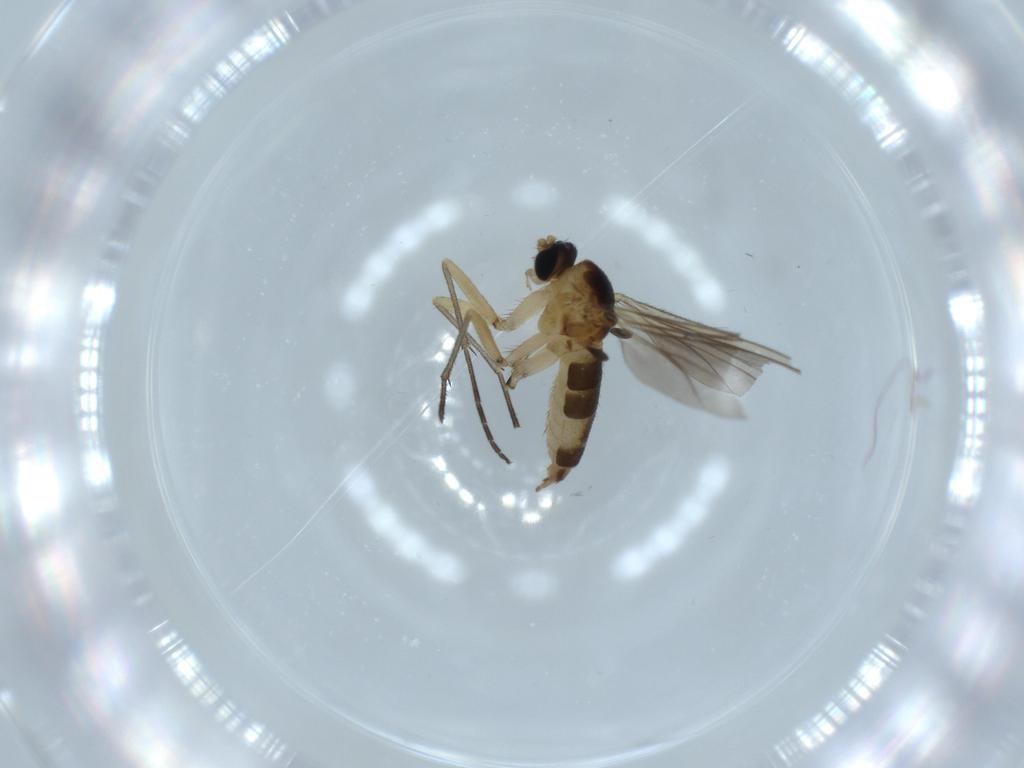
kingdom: Animalia
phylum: Arthropoda
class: Insecta
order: Diptera
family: Sciaridae
